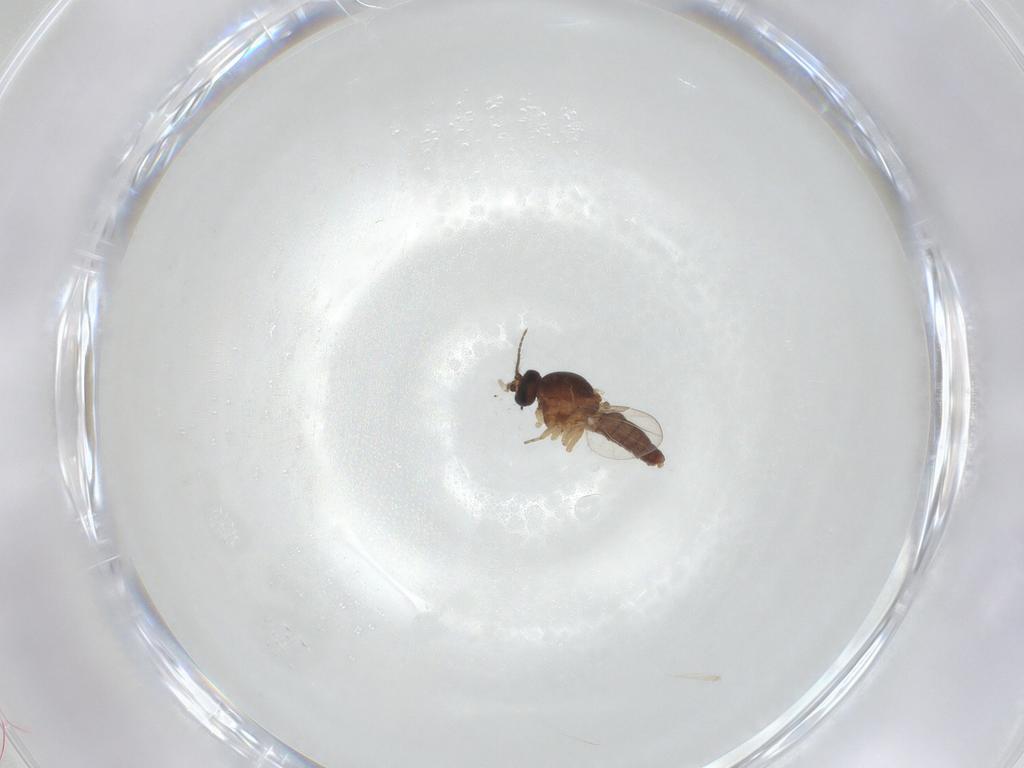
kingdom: Animalia
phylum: Arthropoda
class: Insecta
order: Diptera
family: Ceratopogonidae
